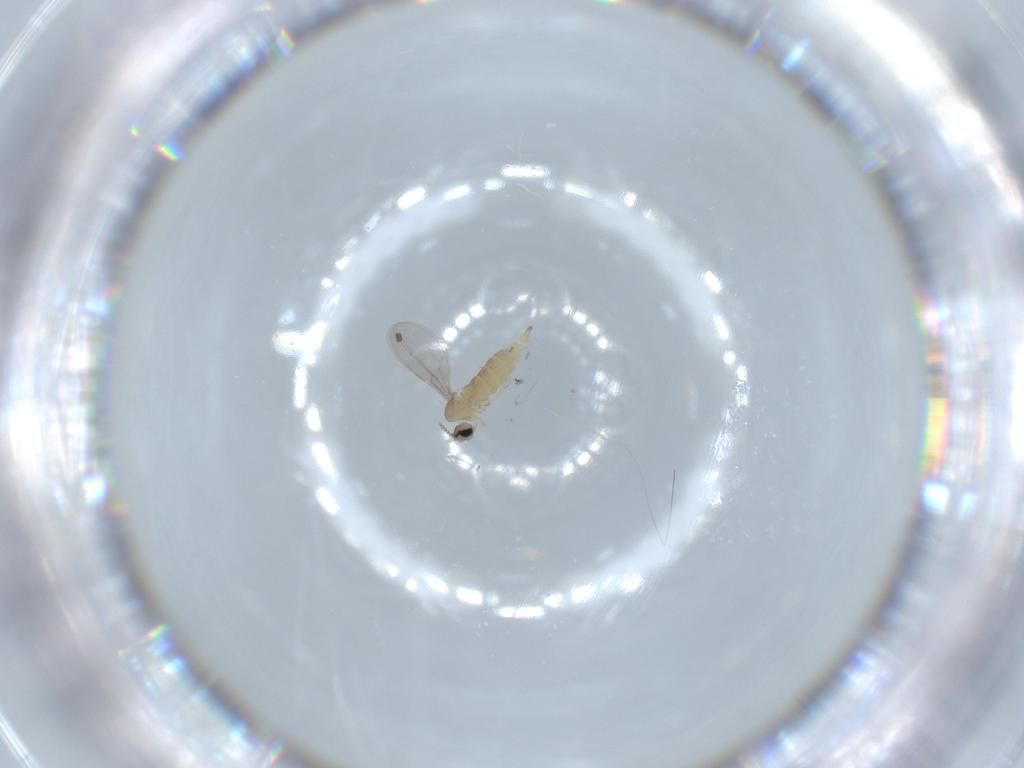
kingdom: Animalia
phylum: Arthropoda
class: Insecta
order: Diptera
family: Cecidomyiidae
